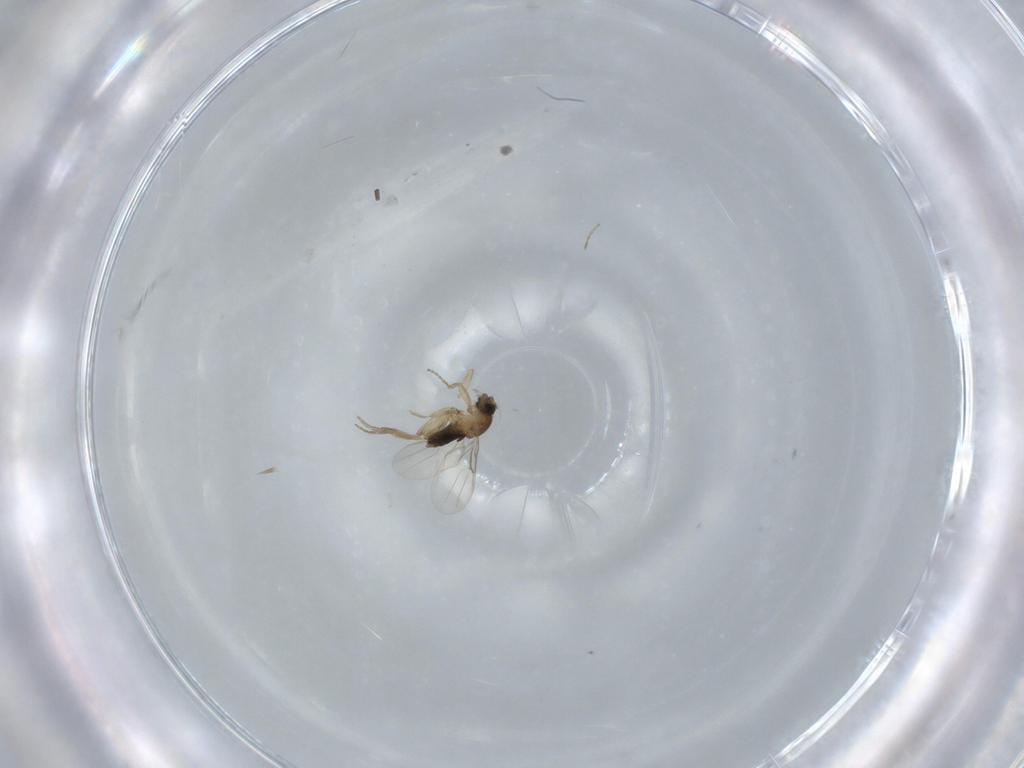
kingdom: Animalia
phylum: Arthropoda
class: Insecta
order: Diptera
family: Phoridae
